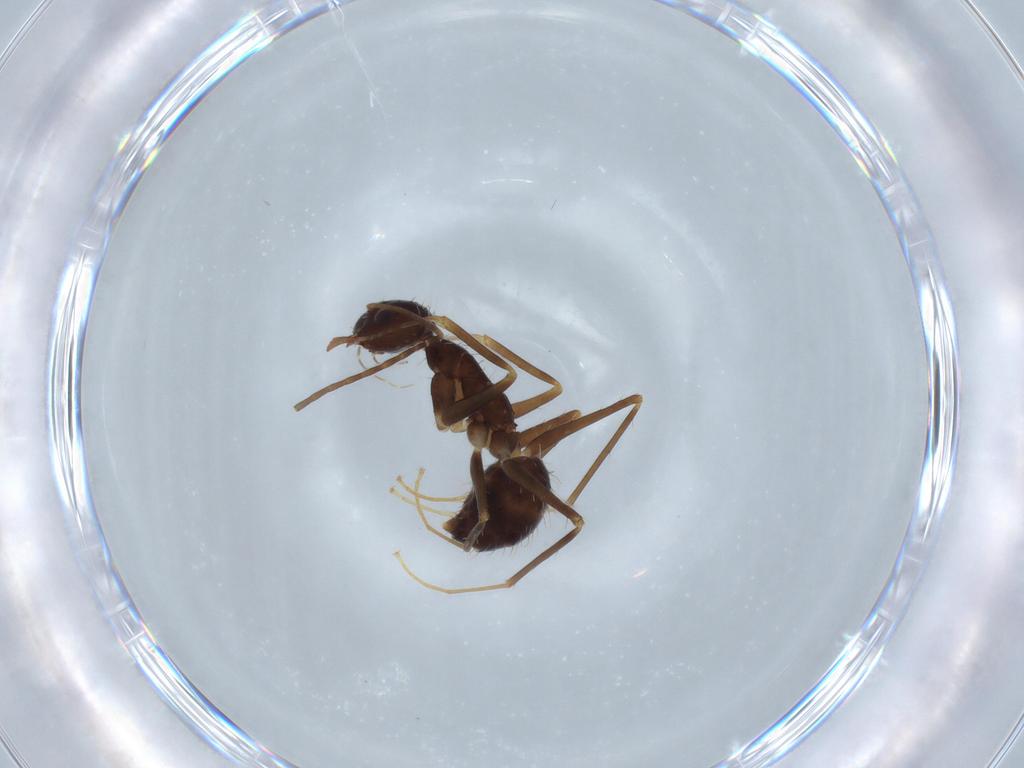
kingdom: Animalia
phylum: Arthropoda
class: Insecta
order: Hymenoptera
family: Formicidae
